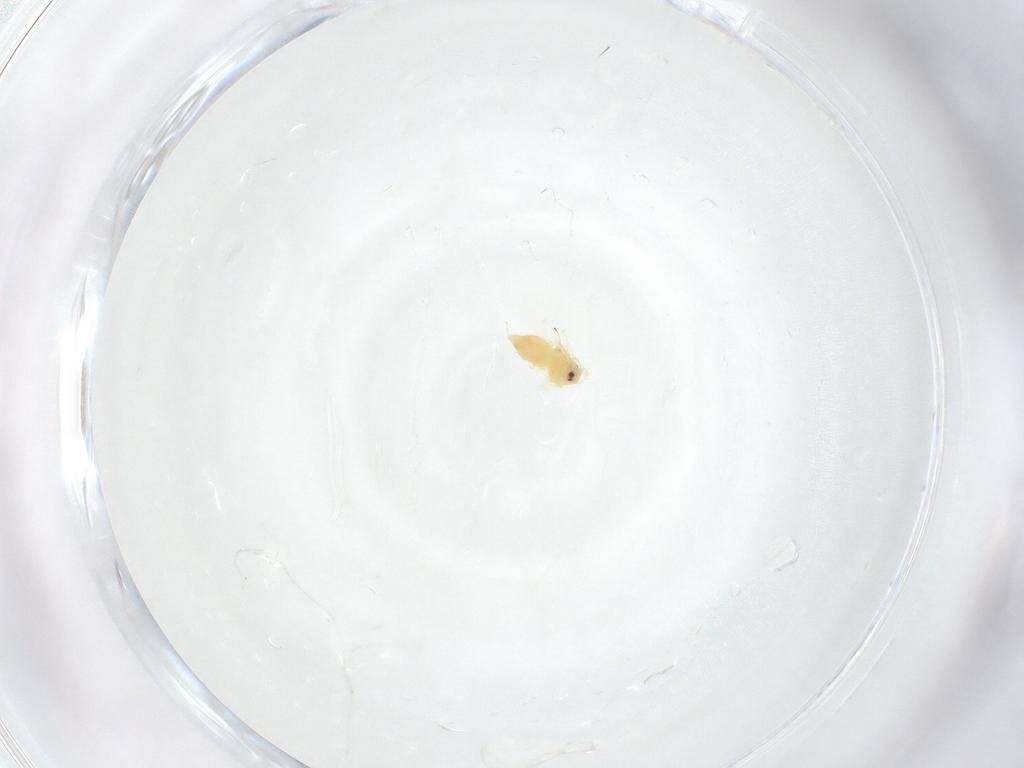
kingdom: Animalia
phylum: Arthropoda
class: Insecta
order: Hemiptera
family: Aleyrodidae
